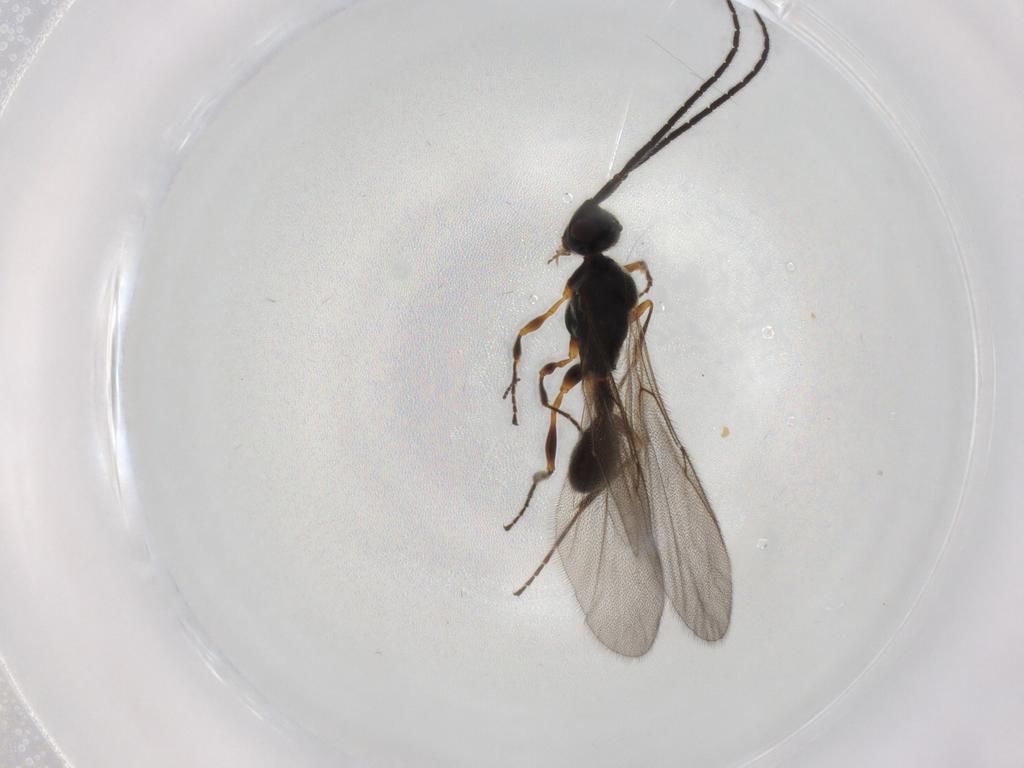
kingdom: Animalia
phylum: Arthropoda
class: Insecta
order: Hymenoptera
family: Diapriidae
